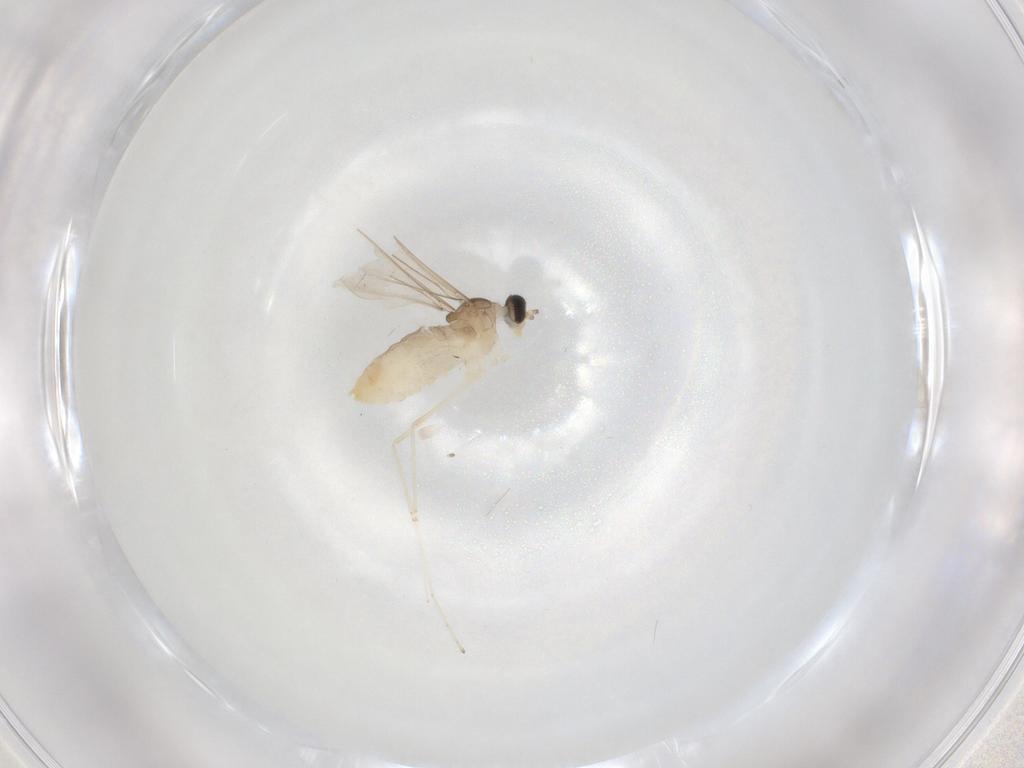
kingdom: Animalia
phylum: Arthropoda
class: Insecta
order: Diptera
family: Cecidomyiidae
